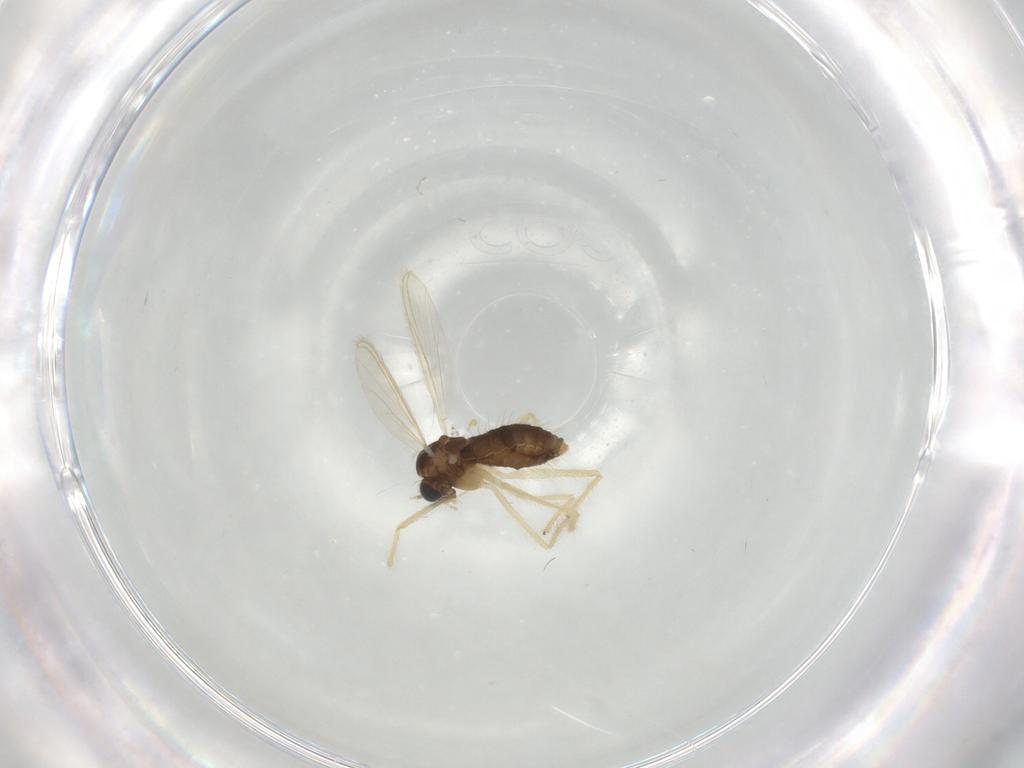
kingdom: Animalia
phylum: Arthropoda
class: Insecta
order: Diptera
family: Chironomidae
